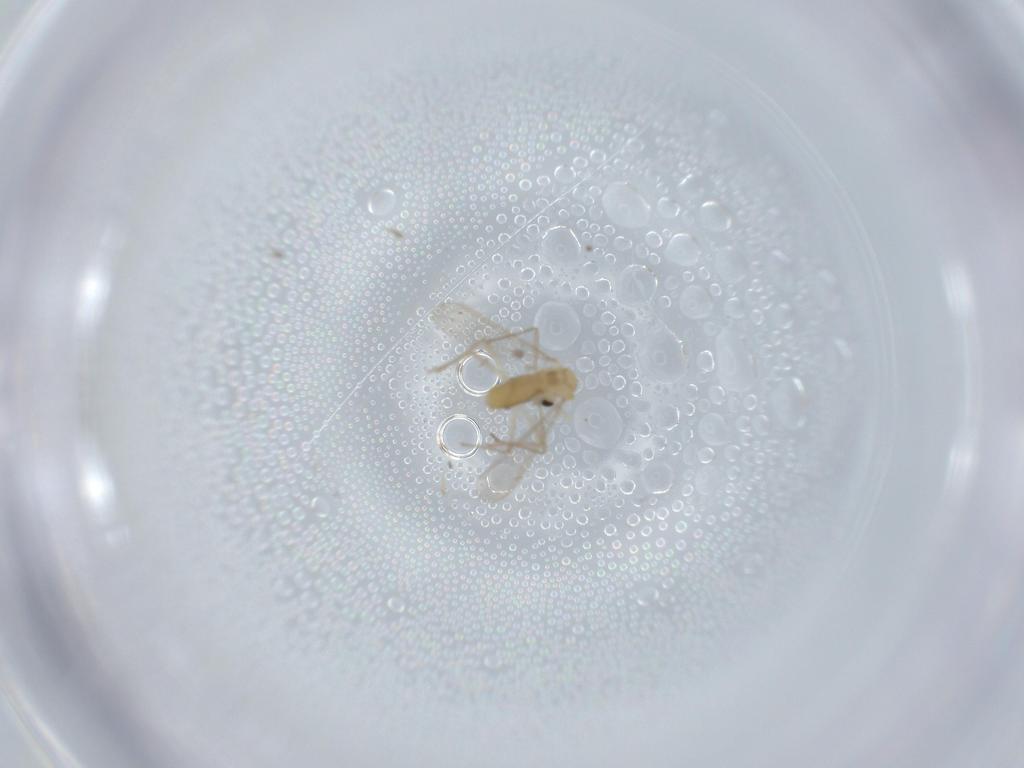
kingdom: Animalia
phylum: Arthropoda
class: Insecta
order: Diptera
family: Chironomidae
